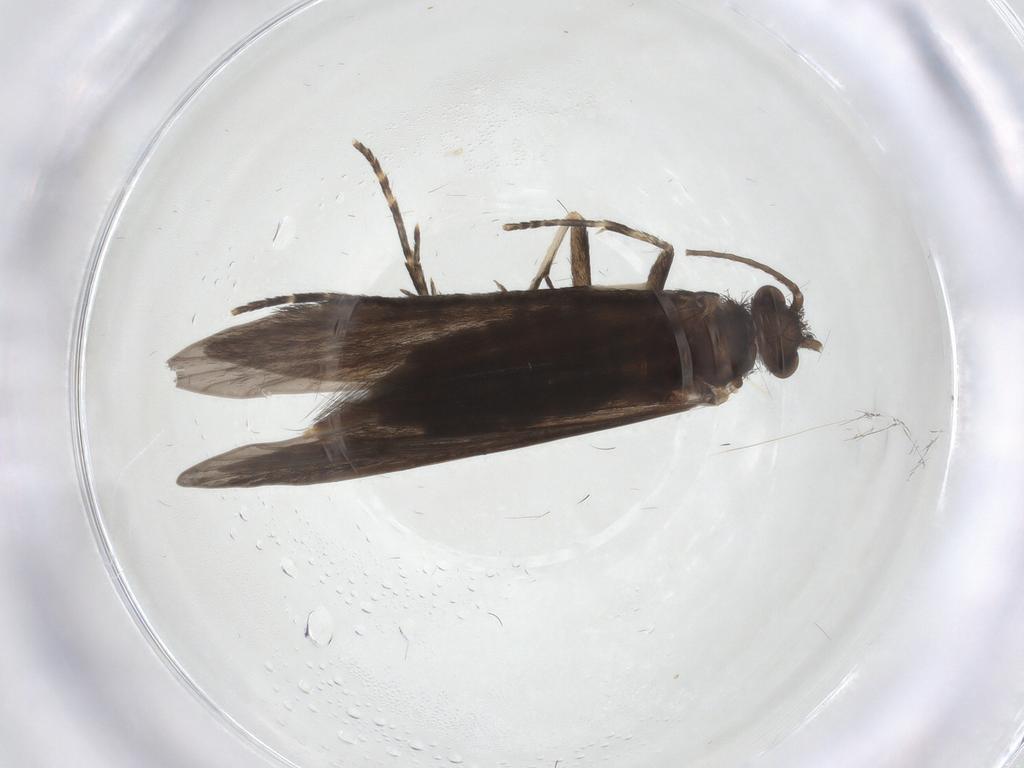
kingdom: Animalia
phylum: Arthropoda
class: Insecta
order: Trichoptera
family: Xiphocentronidae
